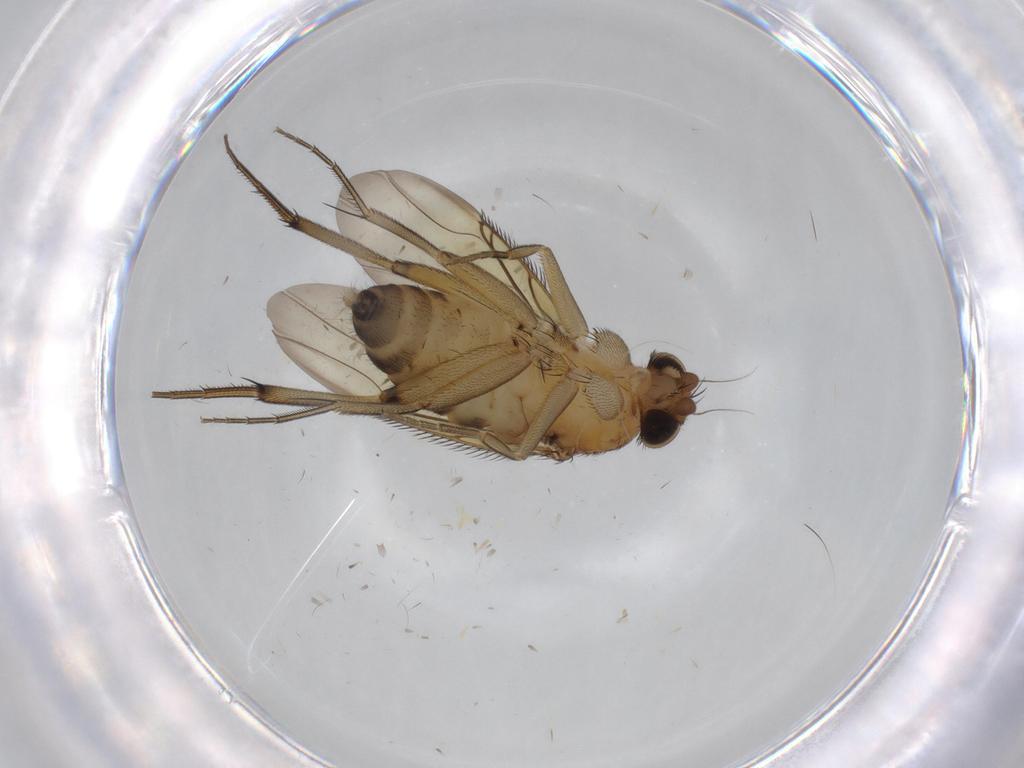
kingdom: Animalia
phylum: Arthropoda
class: Insecta
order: Diptera
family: Phoridae
